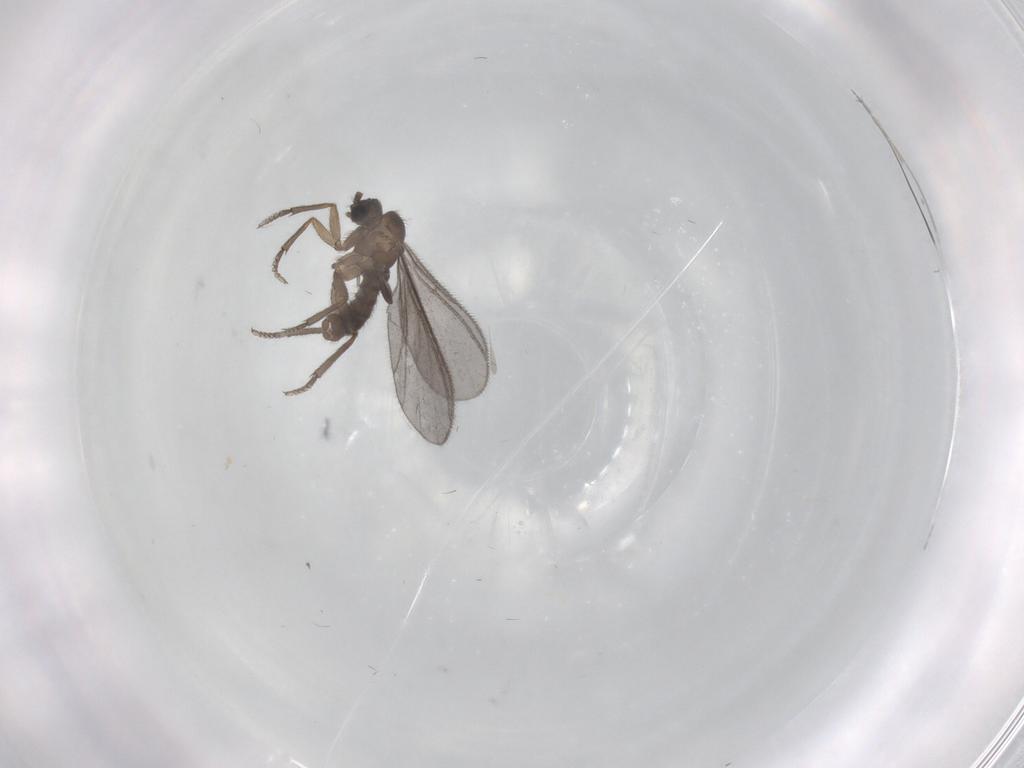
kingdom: Animalia
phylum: Arthropoda
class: Insecta
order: Diptera
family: Sciaridae
